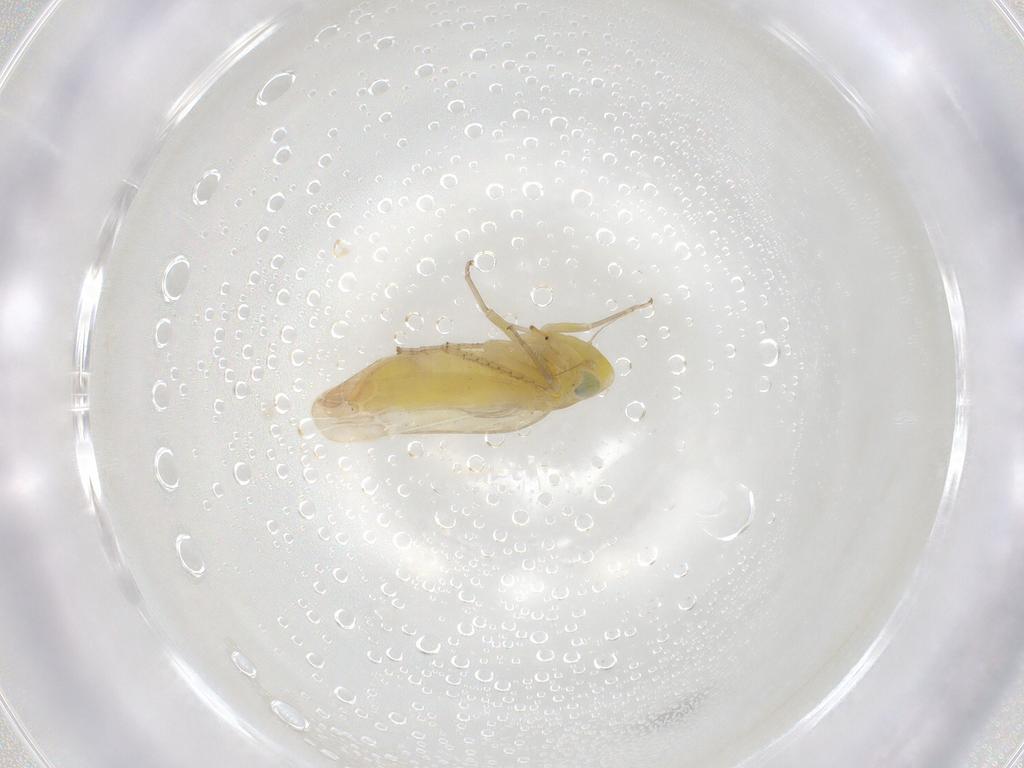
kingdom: Animalia
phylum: Arthropoda
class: Insecta
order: Hemiptera
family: Cicadellidae
